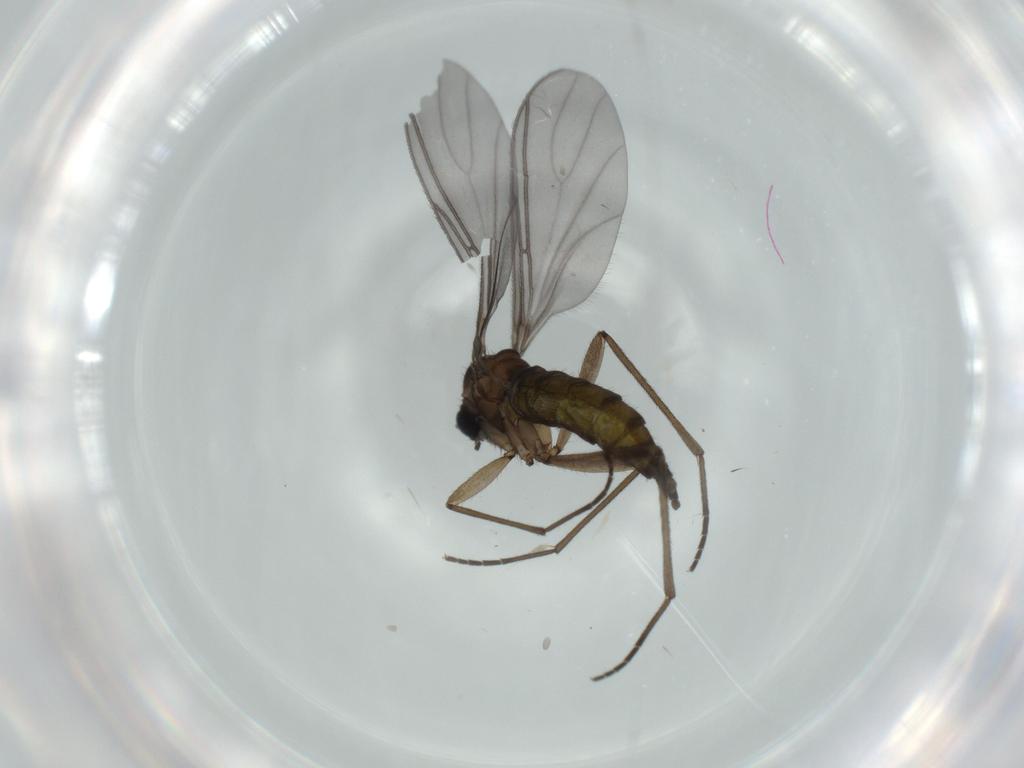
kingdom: Animalia
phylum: Arthropoda
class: Insecta
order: Diptera
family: Sciaridae
